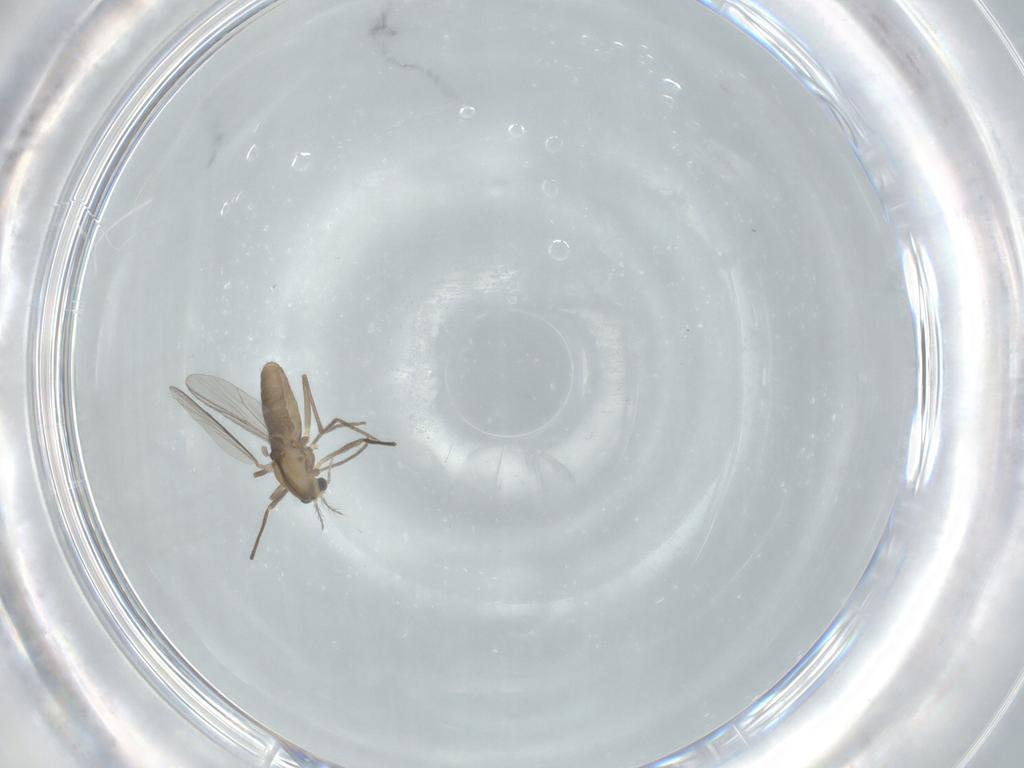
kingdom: Animalia
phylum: Arthropoda
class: Insecta
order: Diptera
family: Chironomidae
